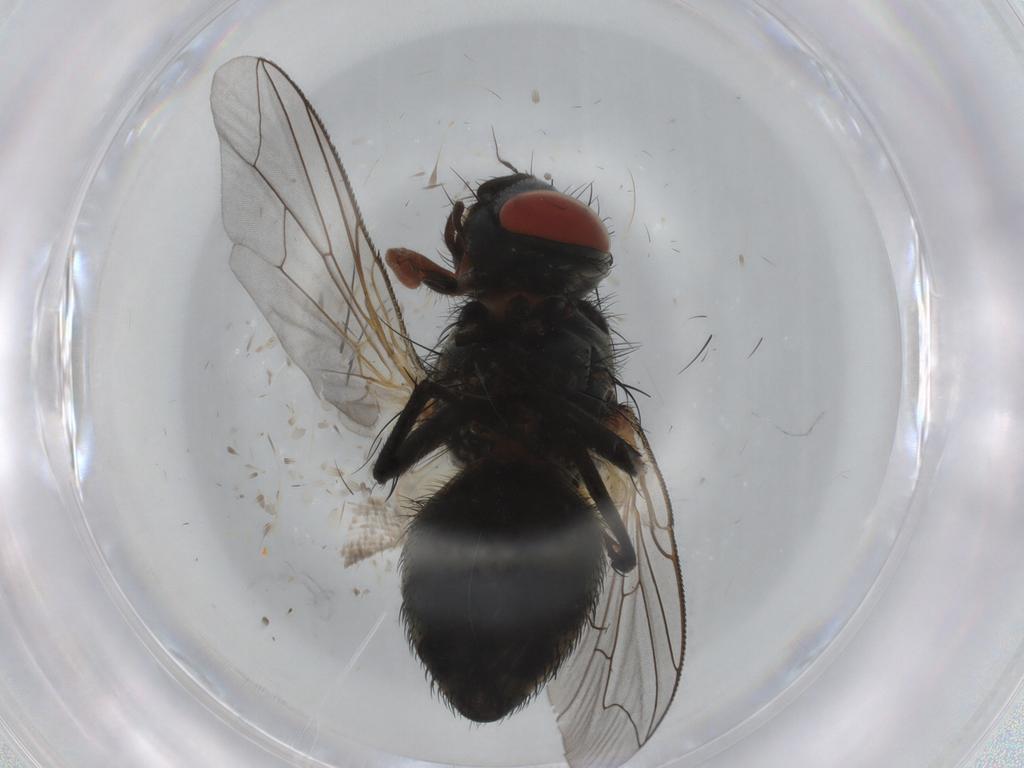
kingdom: Animalia
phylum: Arthropoda
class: Insecta
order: Diptera
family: Sarcophagidae
